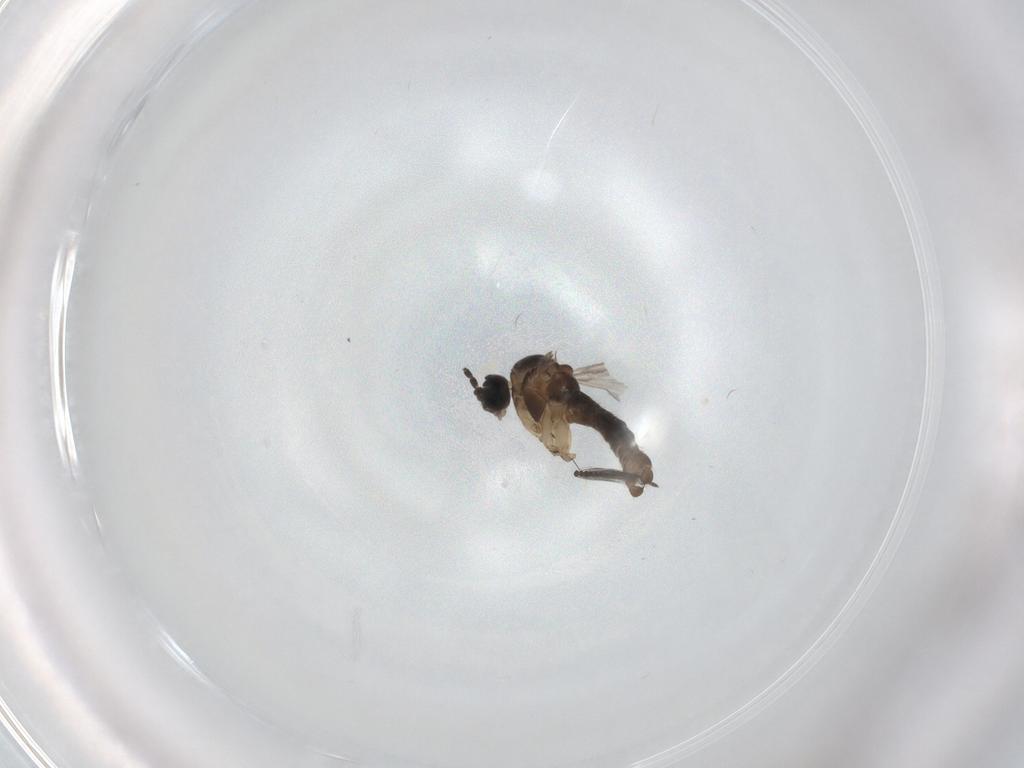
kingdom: Animalia
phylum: Arthropoda
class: Insecta
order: Diptera
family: Sciaridae
